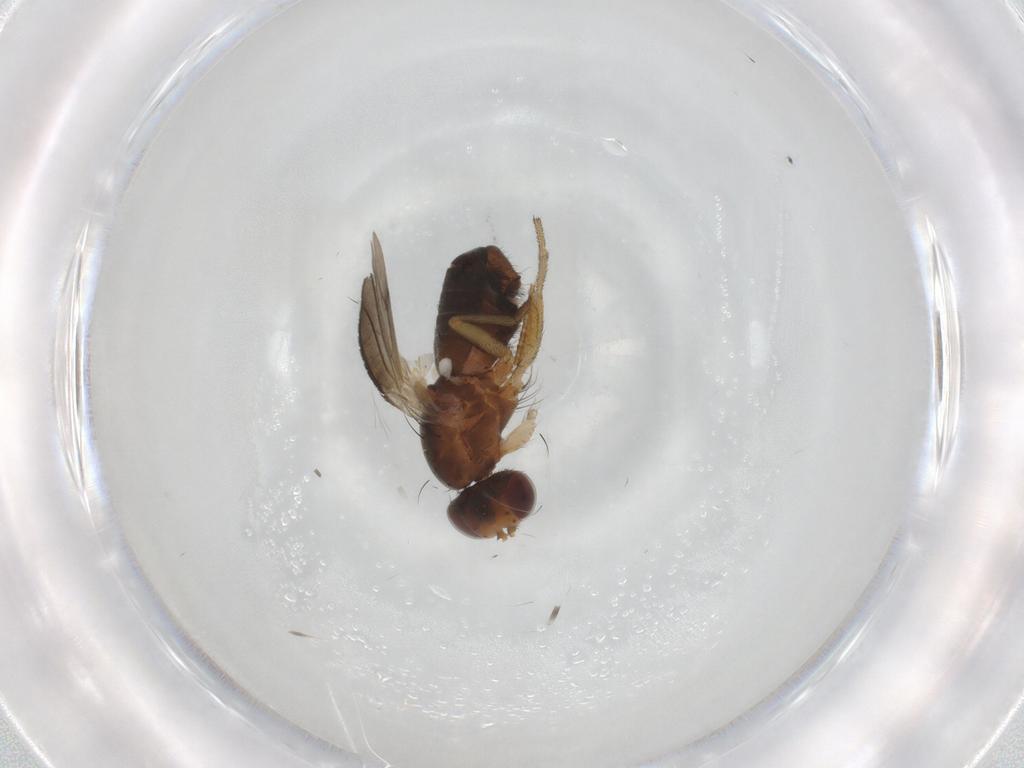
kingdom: Animalia
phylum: Arthropoda
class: Insecta
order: Diptera
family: Heleomyzidae
